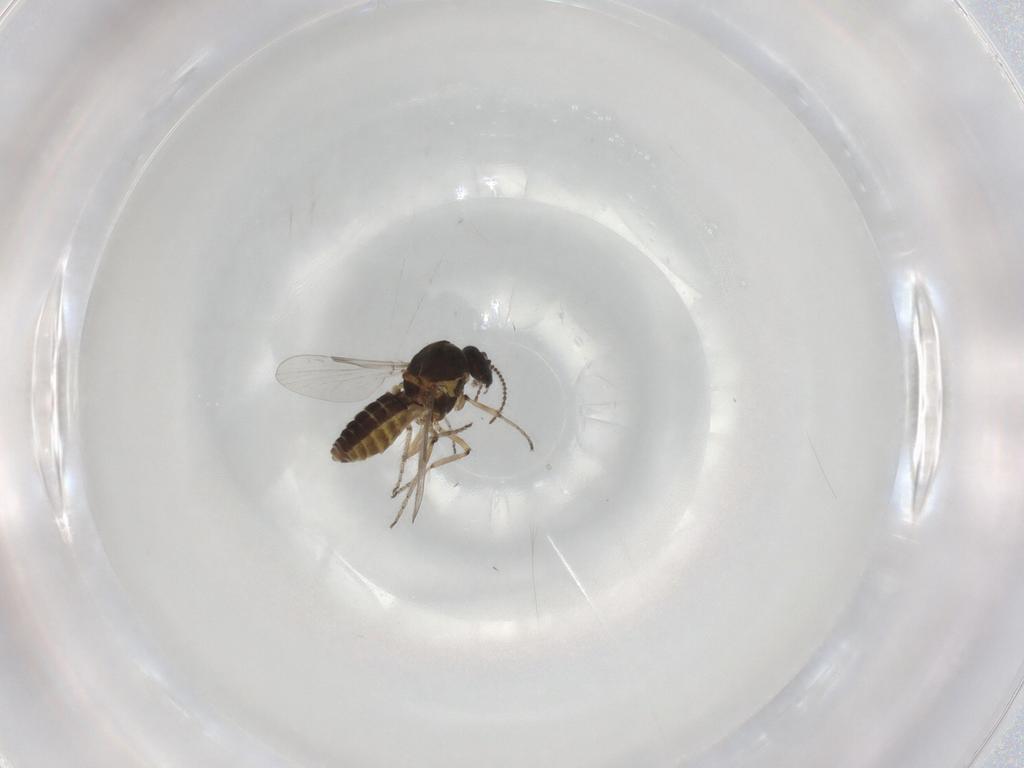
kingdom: Animalia
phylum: Arthropoda
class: Insecta
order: Diptera
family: Ceratopogonidae
